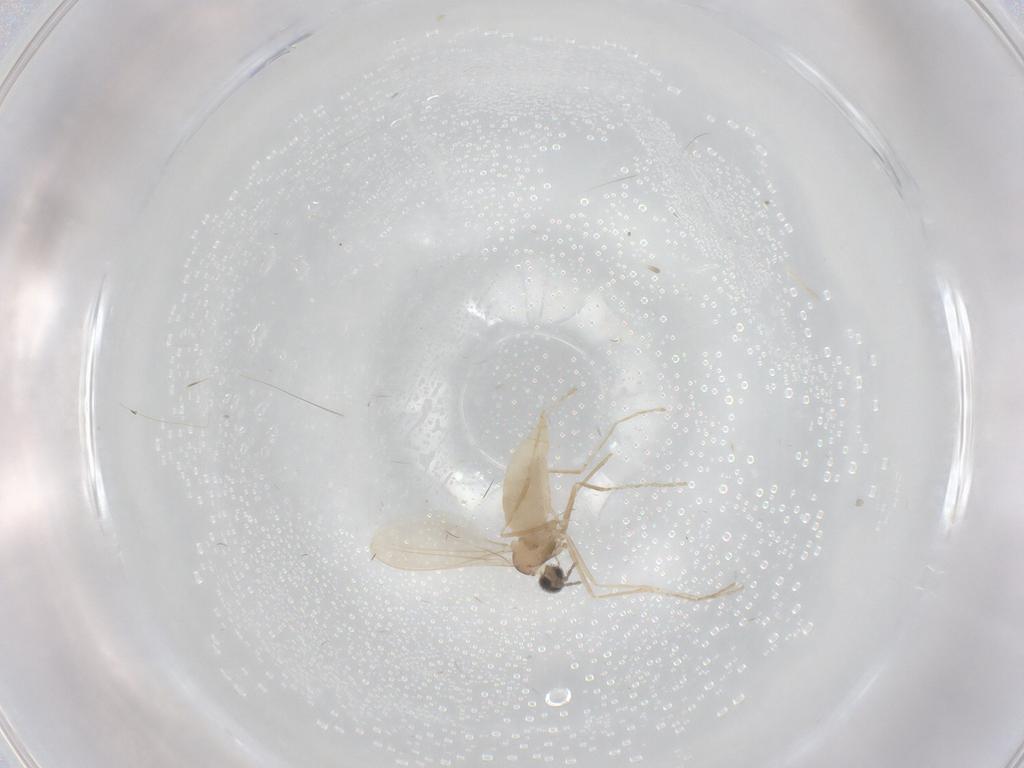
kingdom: Animalia
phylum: Arthropoda
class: Insecta
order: Diptera
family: Cecidomyiidae
